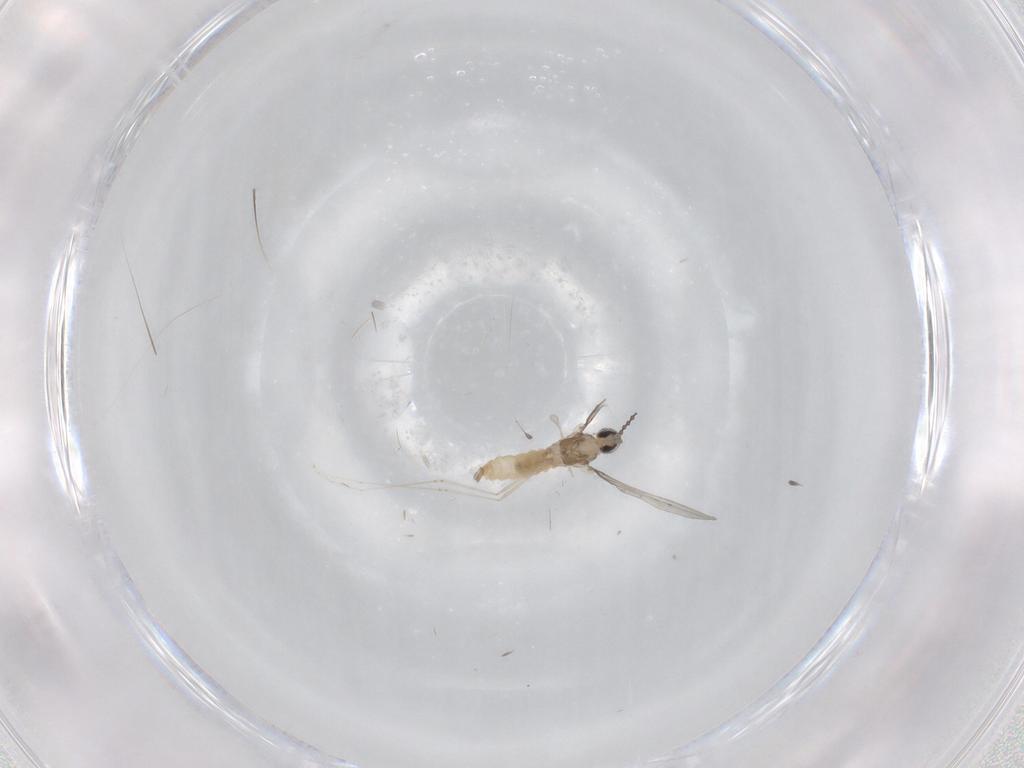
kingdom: Animalia
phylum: Arthropoda
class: Insecta
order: Diptera
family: Cecidomyiidae
